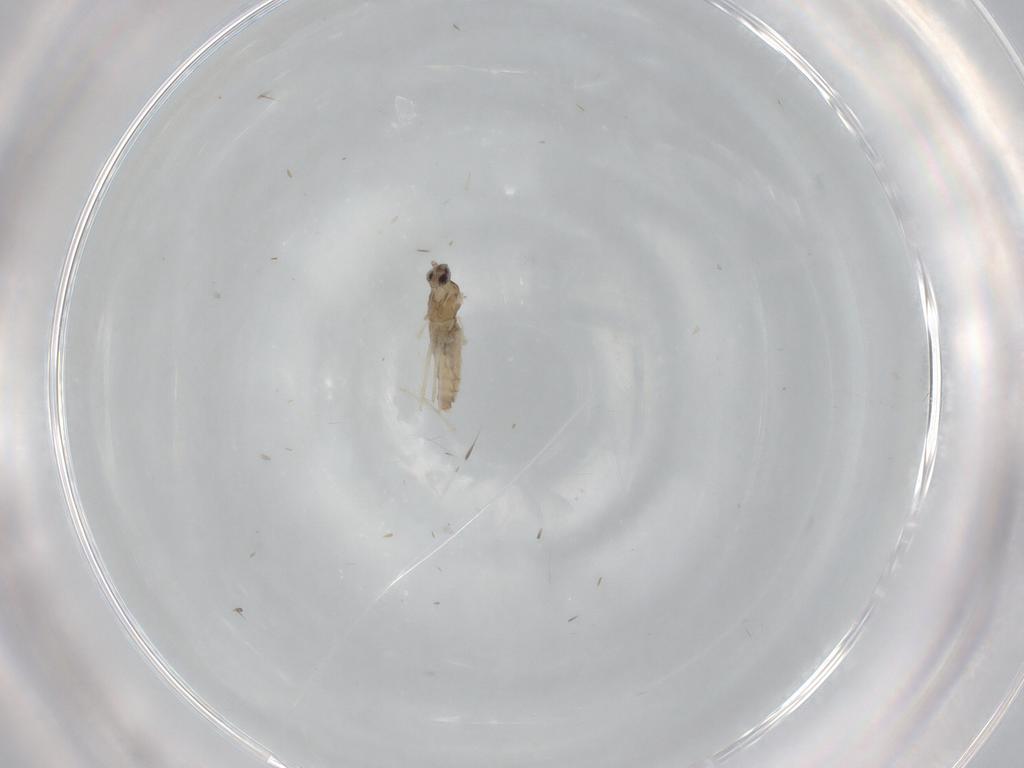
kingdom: Animalia
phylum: Arthropoda
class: Insecta
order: Diptera
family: Cecidomyiidae
